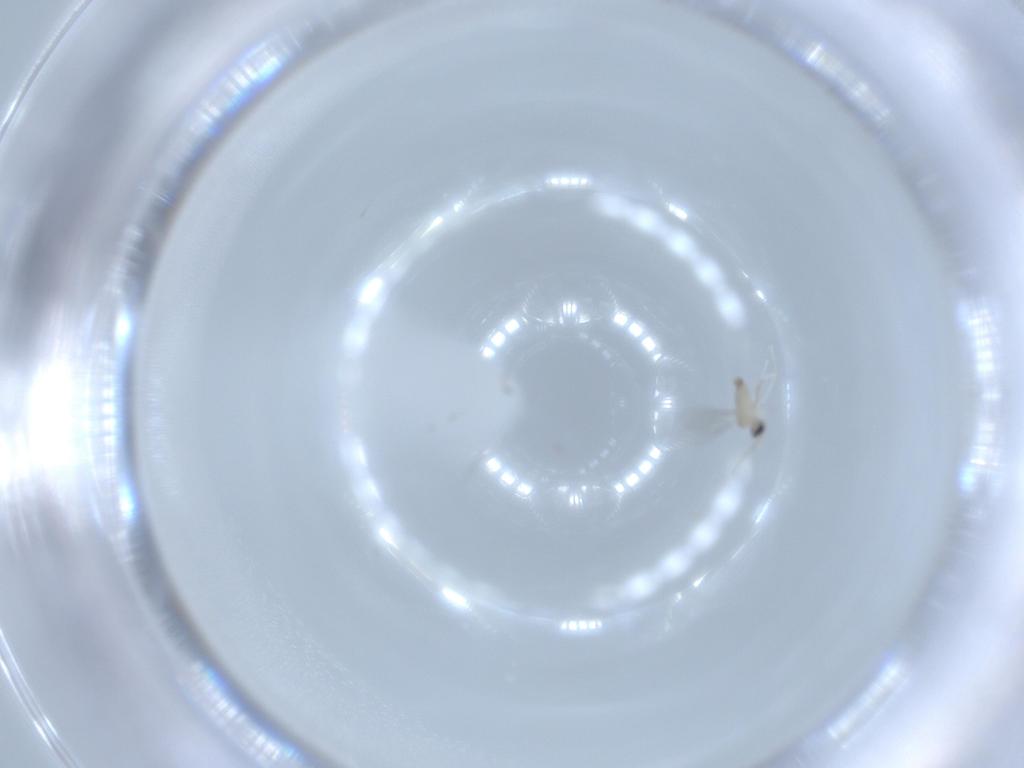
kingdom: Animalia
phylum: Arthropoda
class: Insecta
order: Diptera
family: Cecidomyiidae
